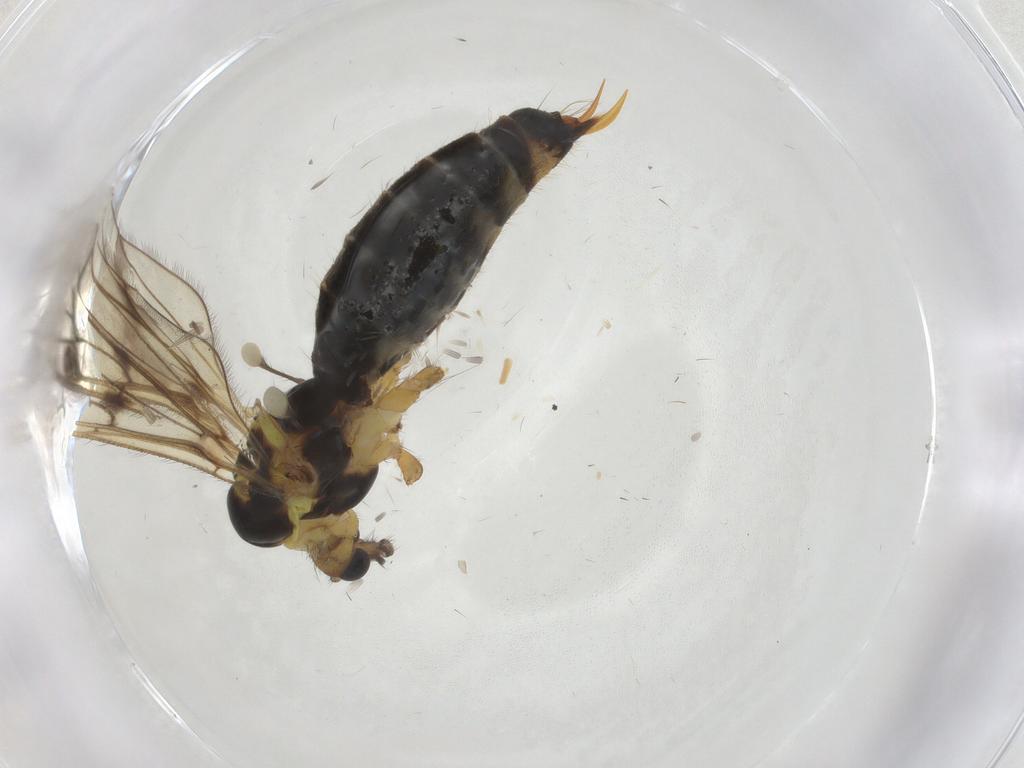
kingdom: Animalia
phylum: Arthropoda
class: Insecta
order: Diptera
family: Limoniidae
